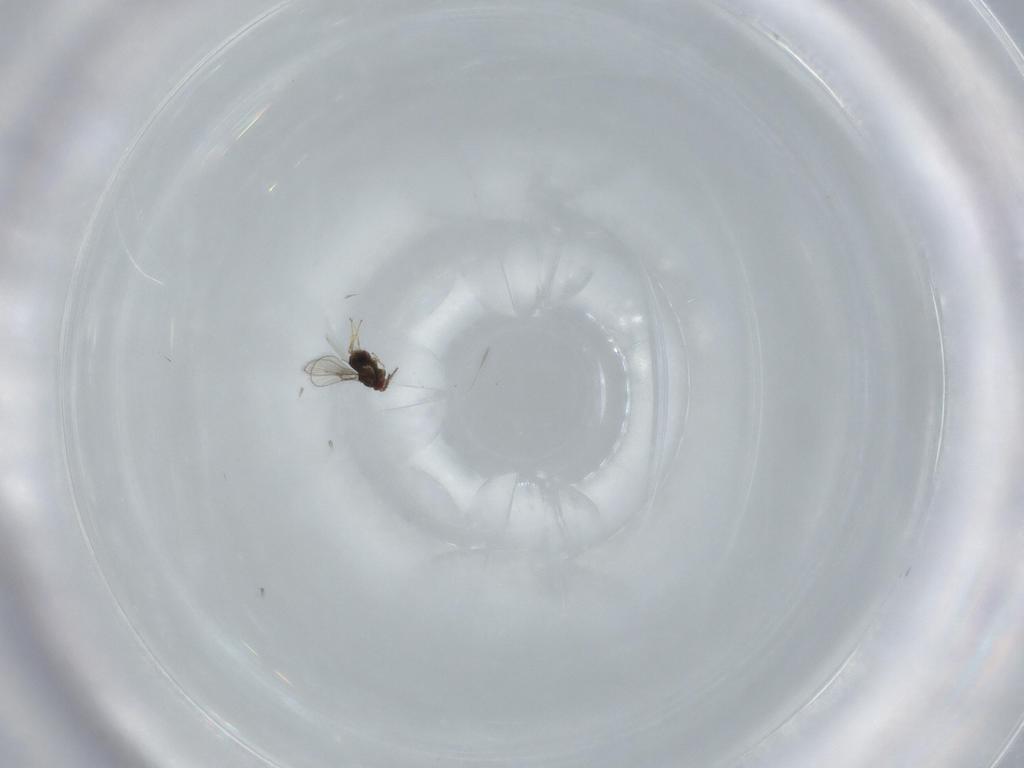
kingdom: Animalia
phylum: Arthropoda
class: Insecta
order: Hymenoptera
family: Trichogrammatidae
